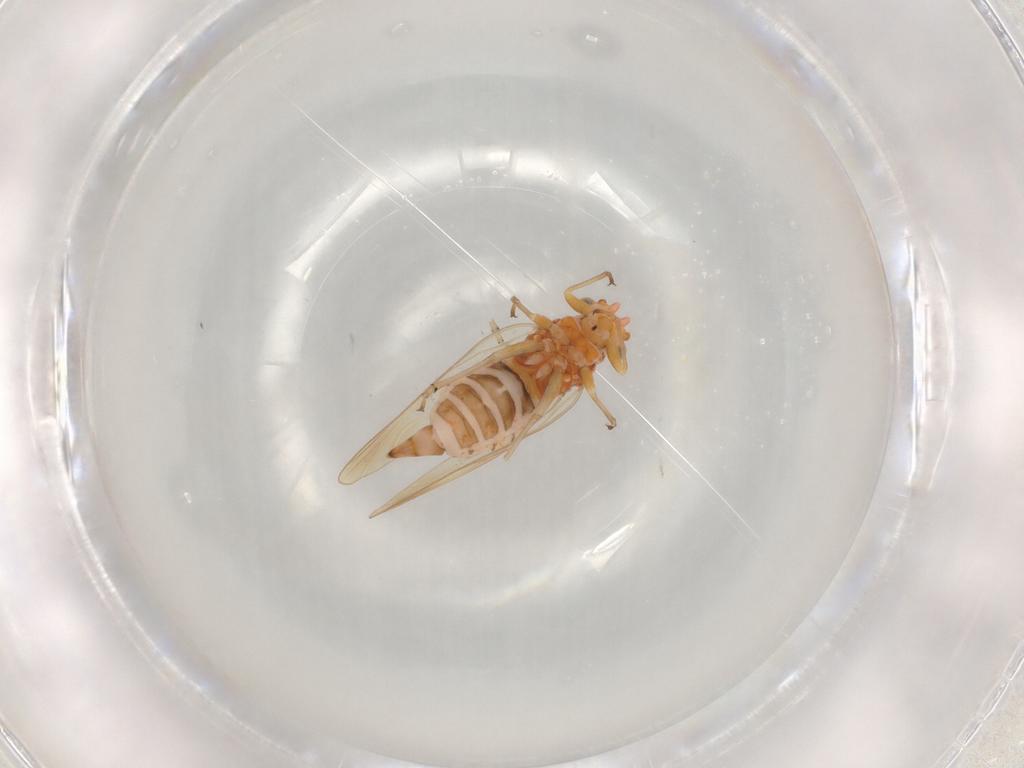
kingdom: Animalia
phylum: Arthropoda
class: Insecta
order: Hemiptera
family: Psyllidae
